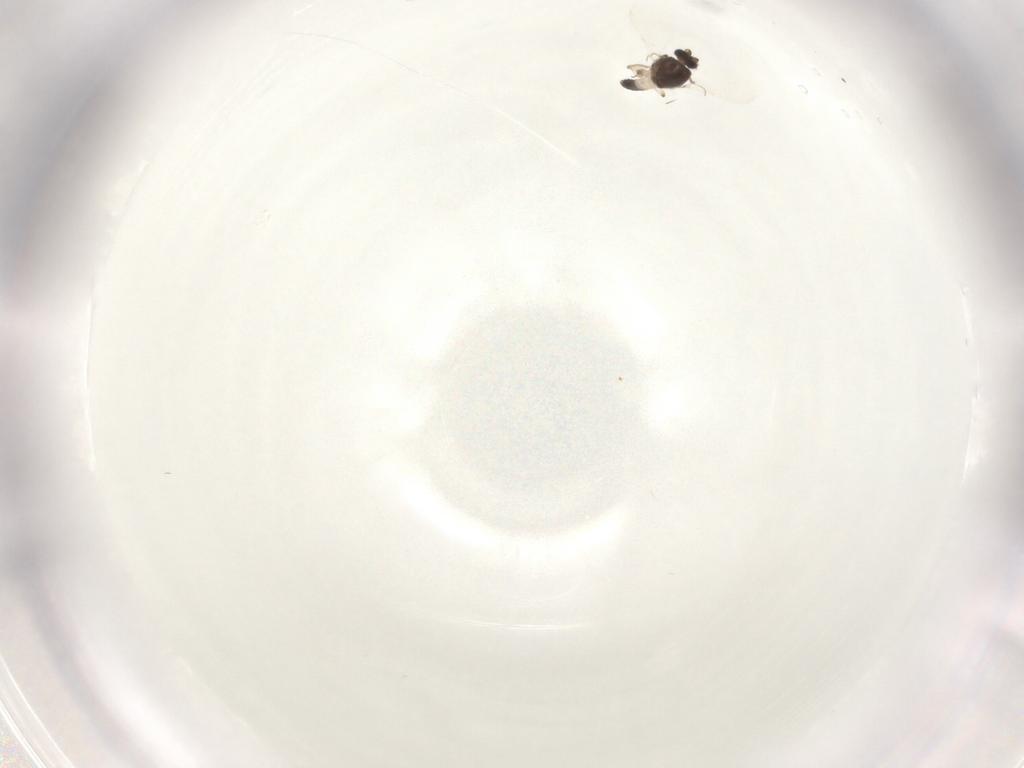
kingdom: Animalia
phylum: Arthropoda
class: Insecta
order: Diptera
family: Ceratopogonidae
